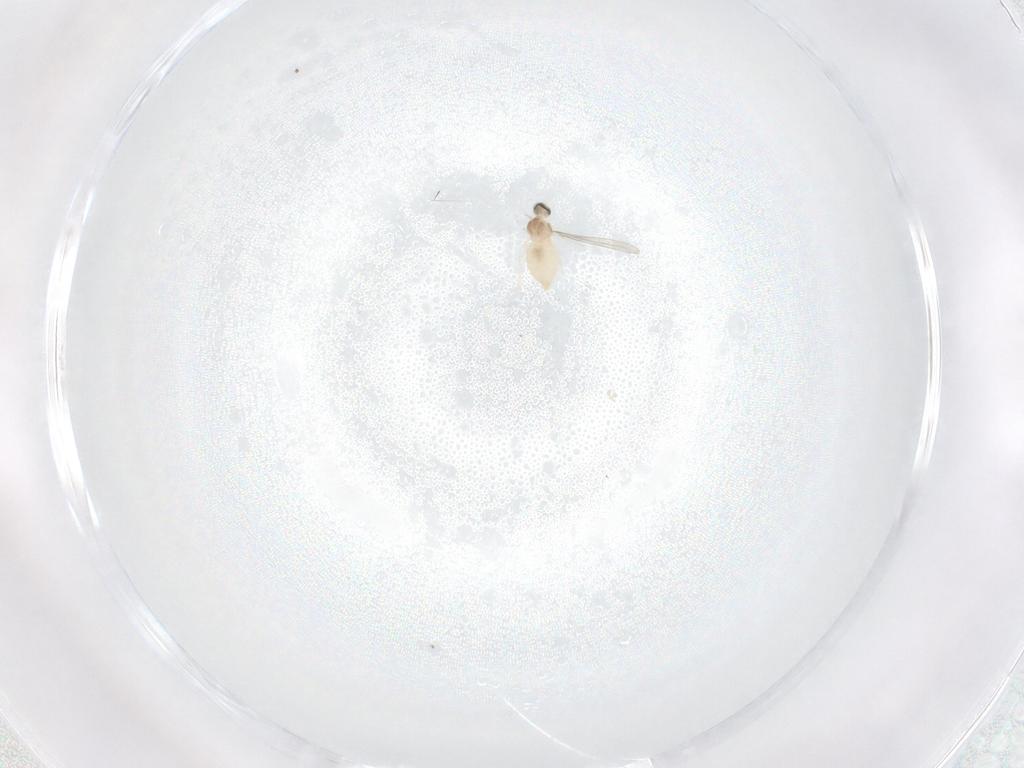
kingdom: Animalia
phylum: Arthropoda
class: Insecta
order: Diptera
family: Cecidomyiidae
